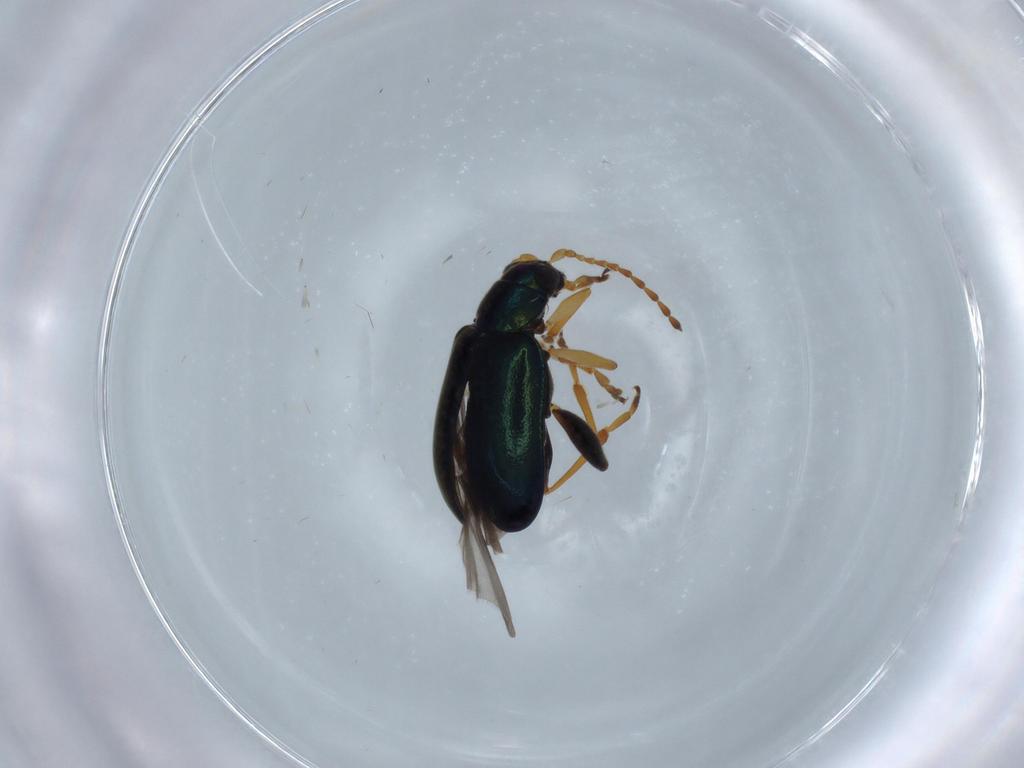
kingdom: Animalia
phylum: Arthropoda
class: Insecta
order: Coleoptera
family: Chrysomelidae
